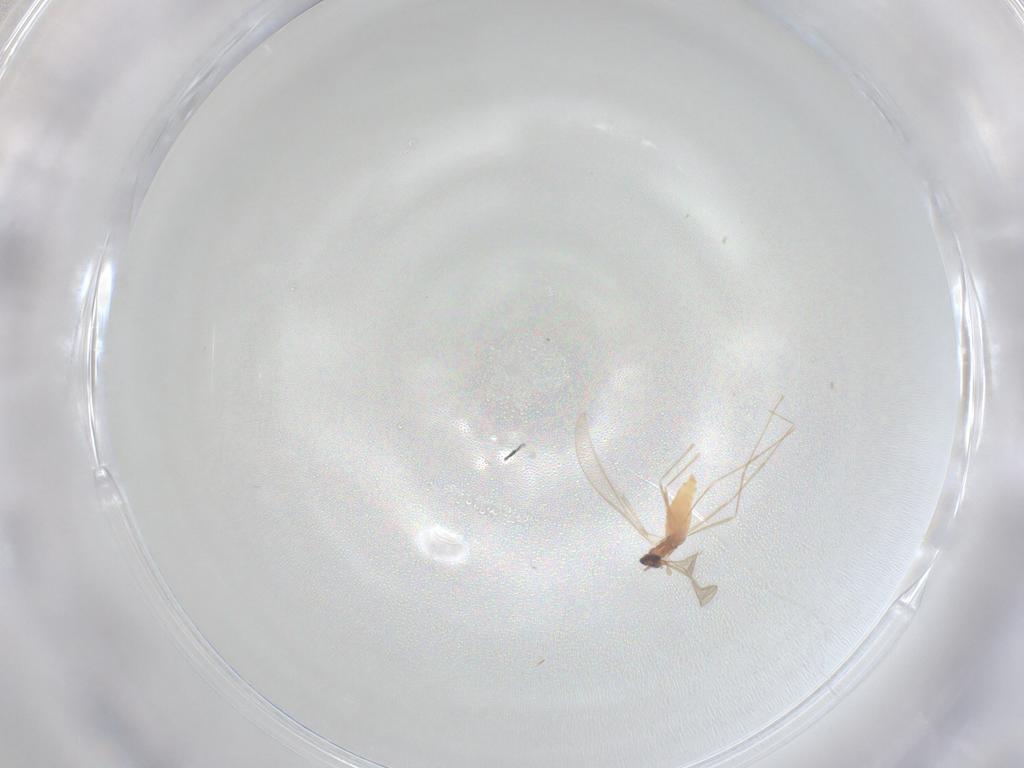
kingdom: Animalia
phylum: Arthropoda
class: Insecta
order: Diptera
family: Cecidomyiidae
